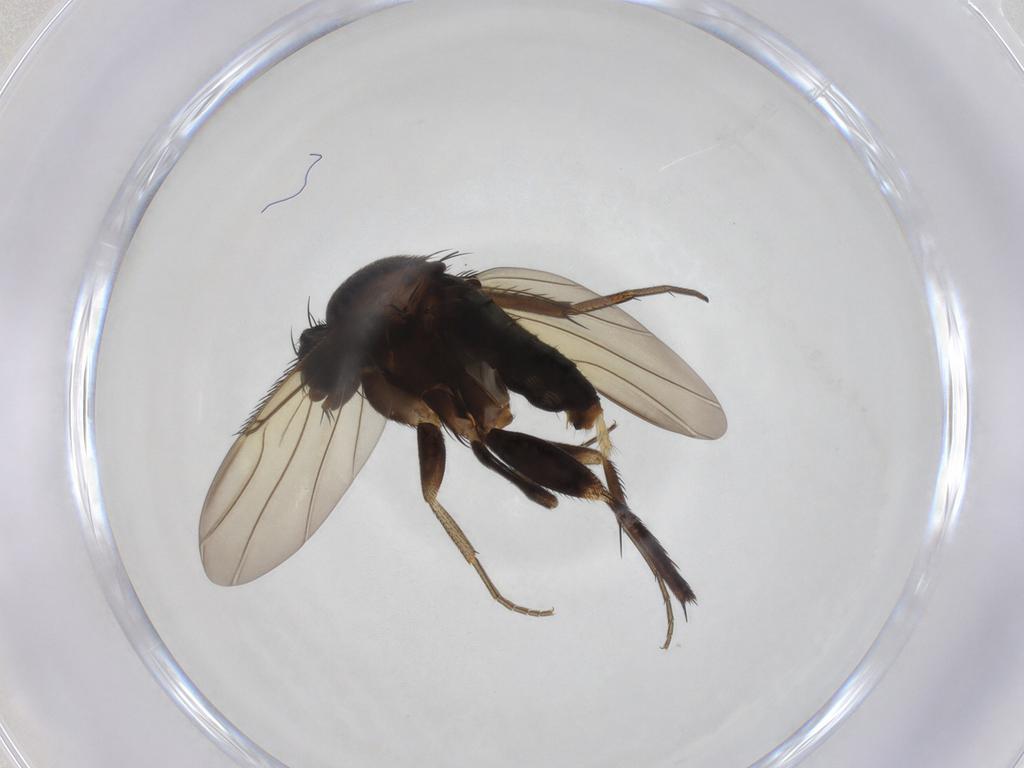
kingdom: Animalia
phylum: Arthropoda
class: Insecta
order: Diptera
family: Phoridae
